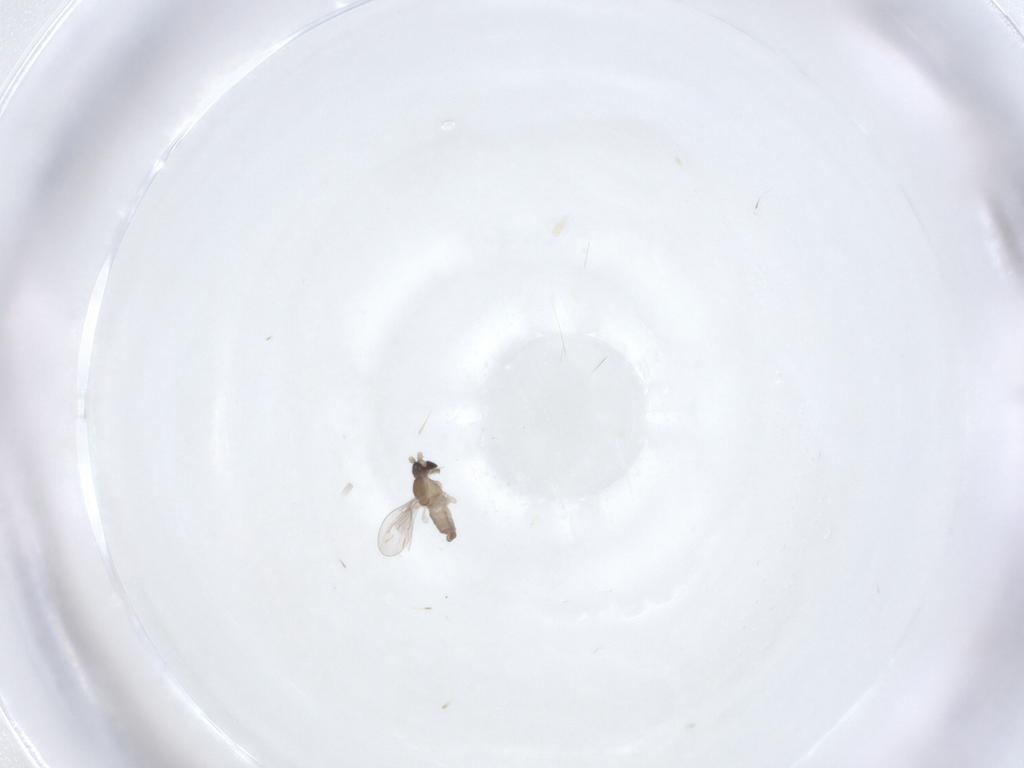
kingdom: Animalia
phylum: Arthropoda
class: Insecta
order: Diptera
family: Cecidomyiidae
